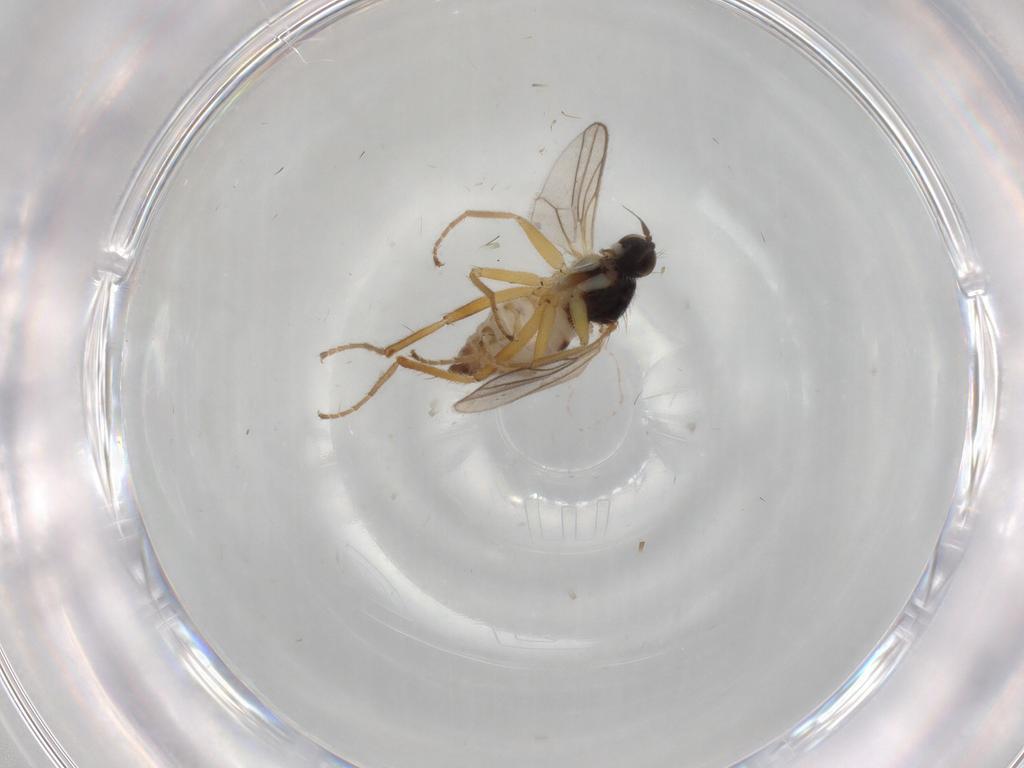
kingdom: Animalia
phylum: Arthropoda
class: Insecta
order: Diptera
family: Hybotidae
